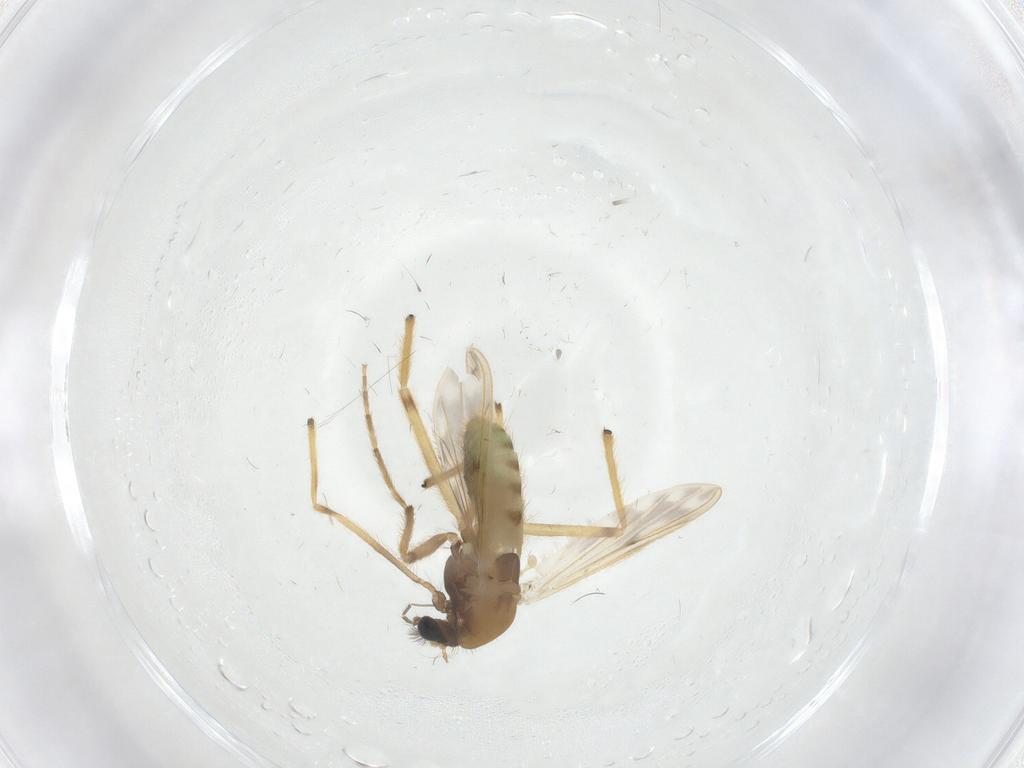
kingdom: Animalia
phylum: Arthropoda
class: Insecta
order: Diptera
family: Chironomidae
